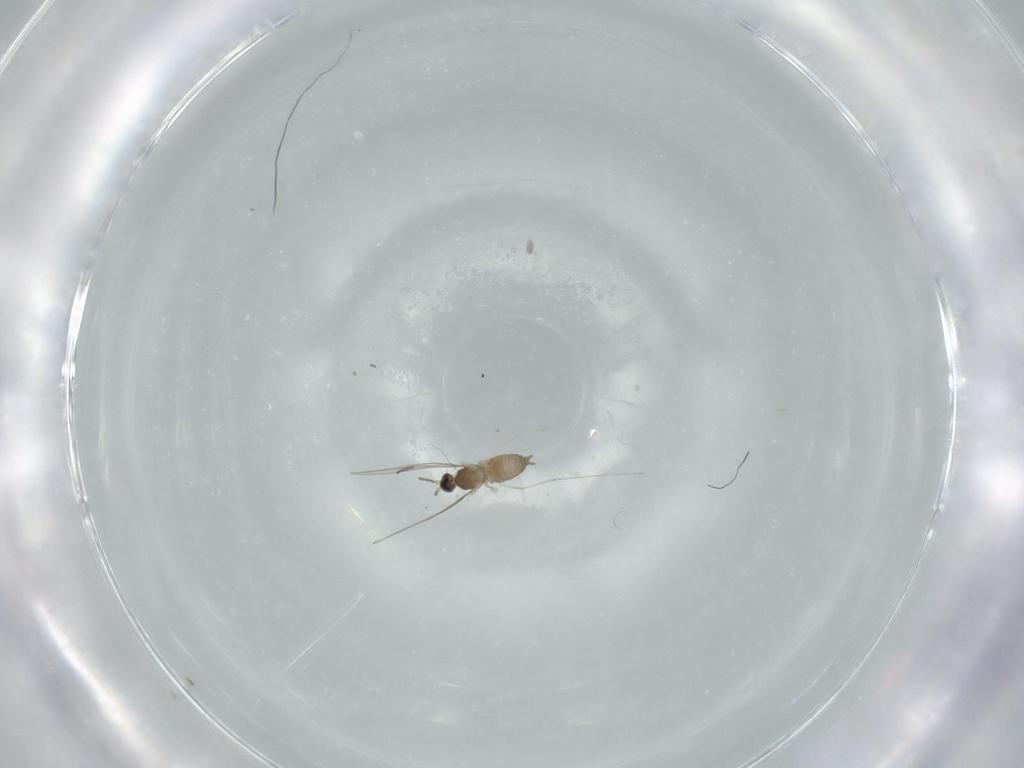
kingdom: Animalia
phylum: Arthropoda
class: Insecta
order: Diptera
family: Cecidomyiidae
